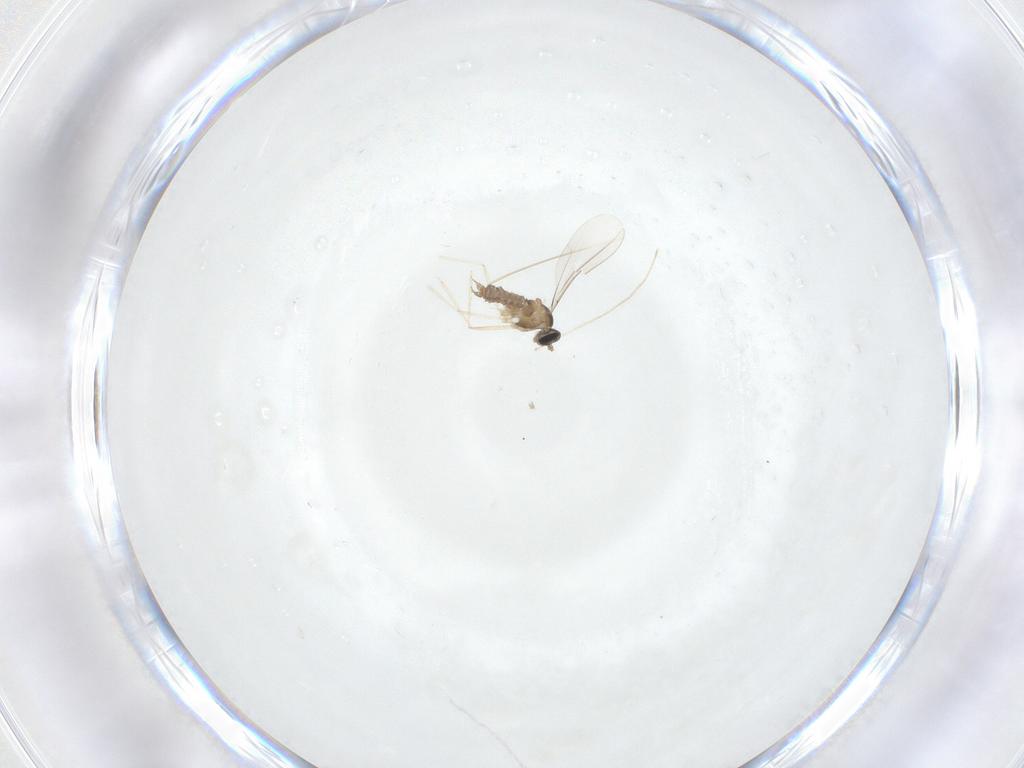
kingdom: Animalia
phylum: Arthropoda
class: Insecta
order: Diptera
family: Cecidomyiidae
